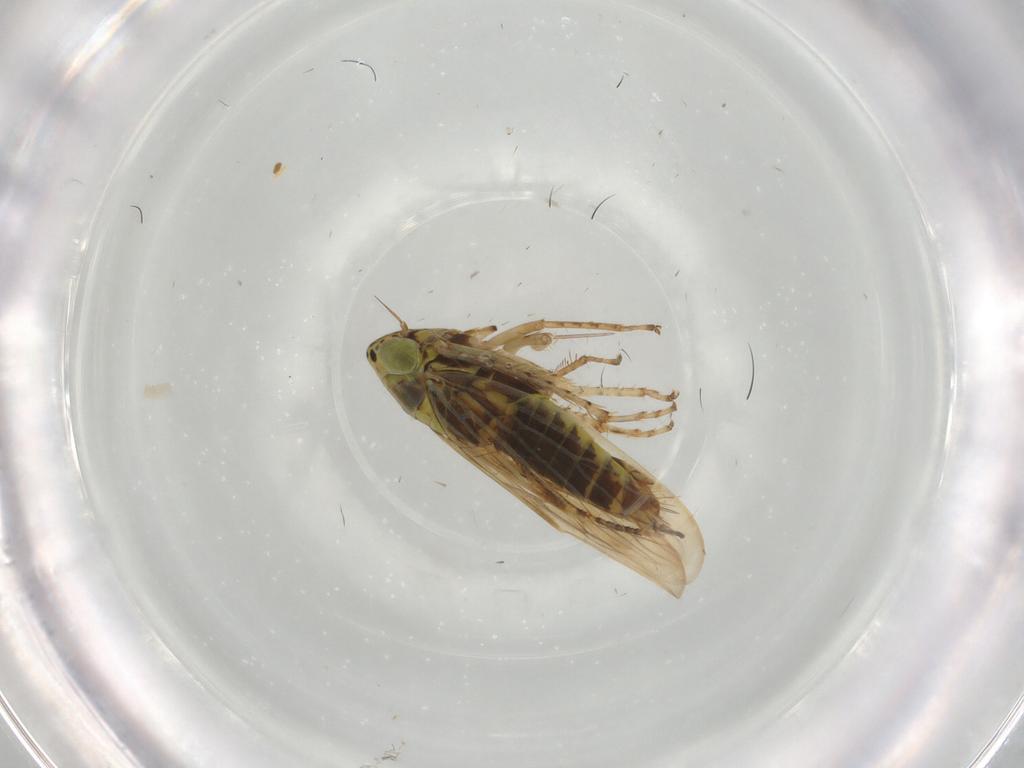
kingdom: Animalia
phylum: Arthropoda
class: Insecta
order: Hemiptera
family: Cicadellidae
